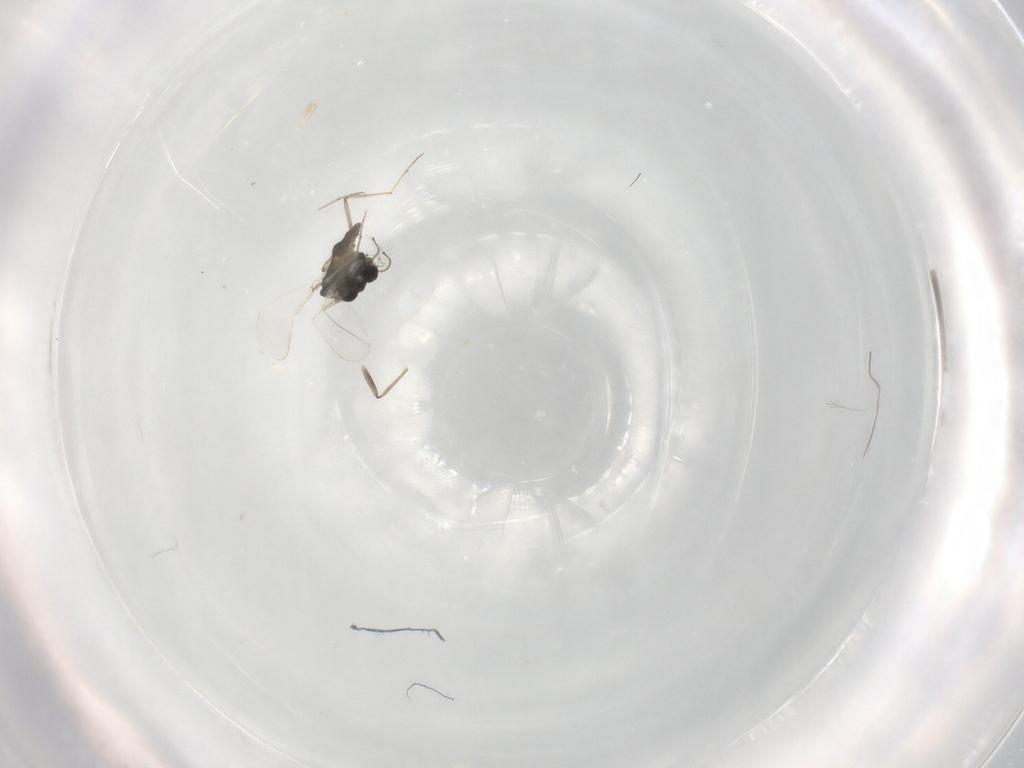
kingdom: Animalia
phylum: Arthropoda
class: Insecta
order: Diptera
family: Chironomidae
